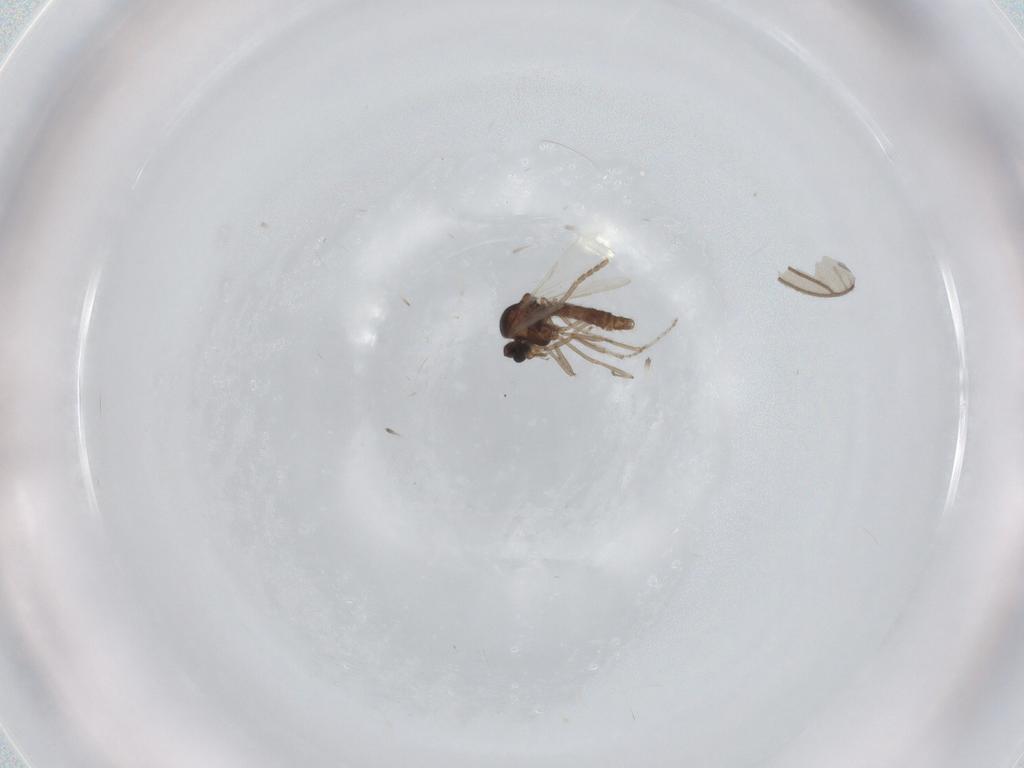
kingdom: Animalia
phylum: Arthropoda
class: Insecta
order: Diptera
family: Ceratopogonidae
